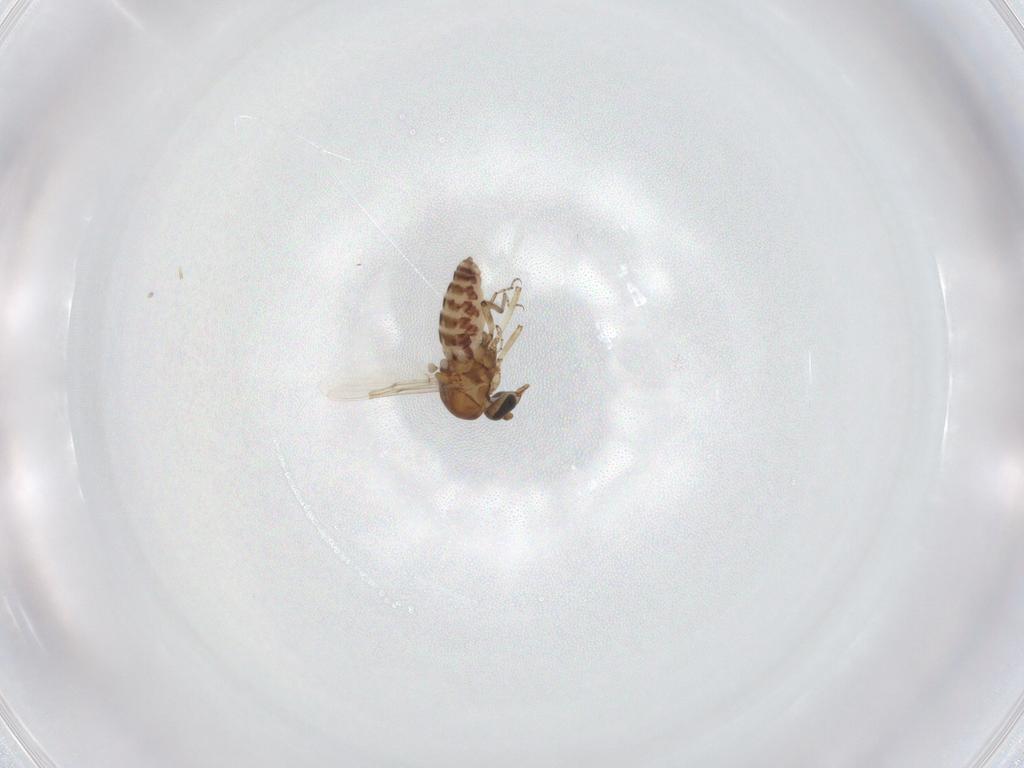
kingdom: Animalia
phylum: Arthropoda
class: Insecta
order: Diptera
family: Ceratopogonidae
